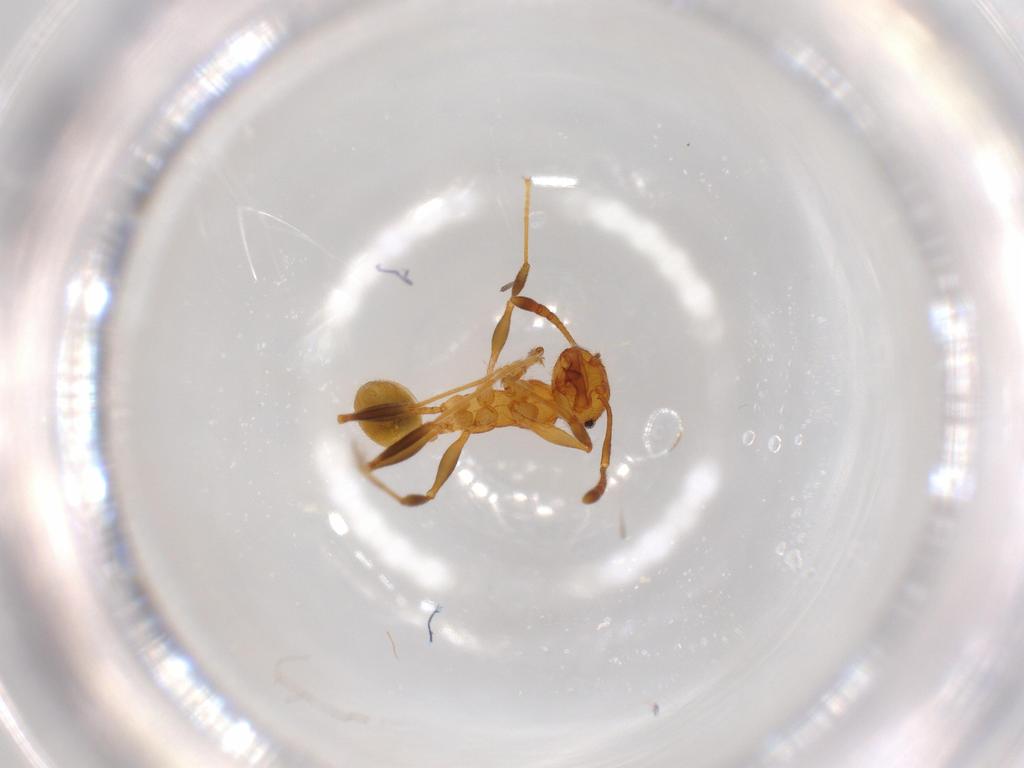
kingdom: Animalia
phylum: Arthropoda
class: Insecta
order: Hymenoptera
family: Formicidae
